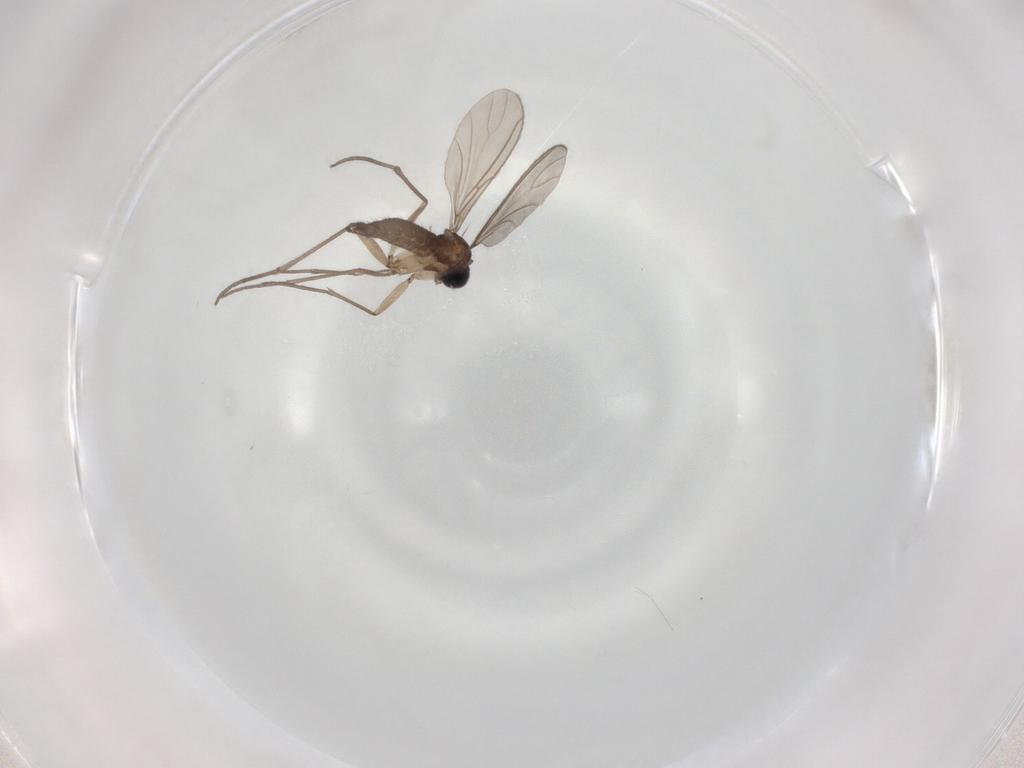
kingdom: Animalia
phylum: Arthropoda
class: Insecta
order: Diptera
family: Sciaridae
